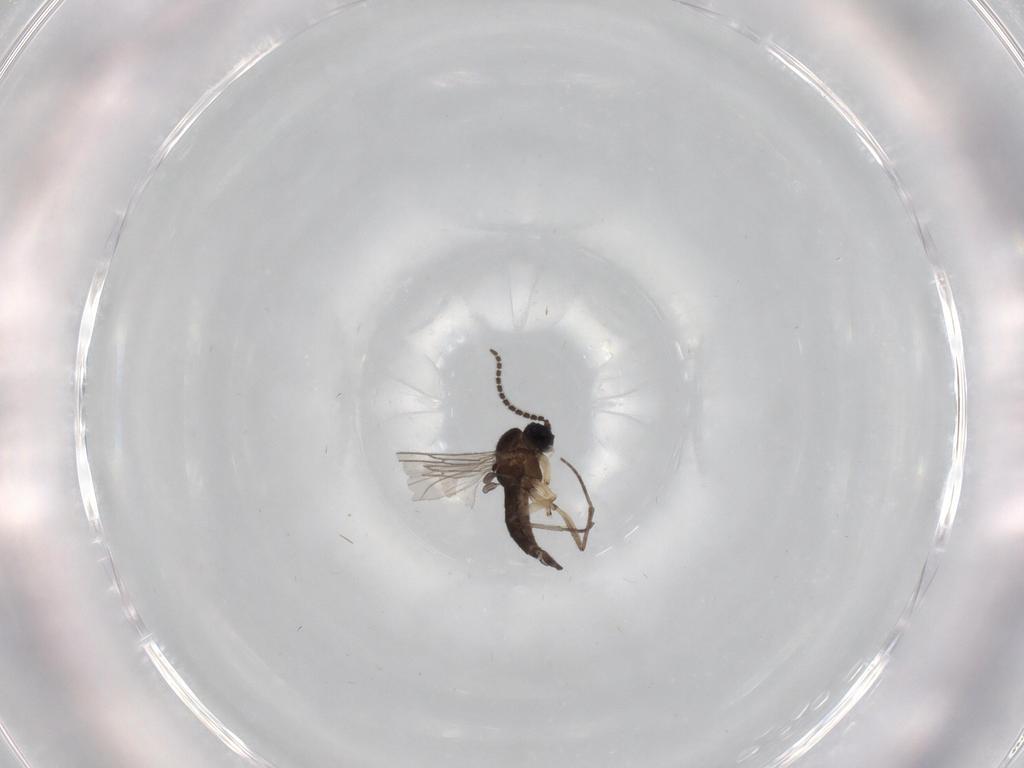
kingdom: Animalia
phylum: Arthropoda
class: Insecta
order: Diptera
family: Sciaridae
